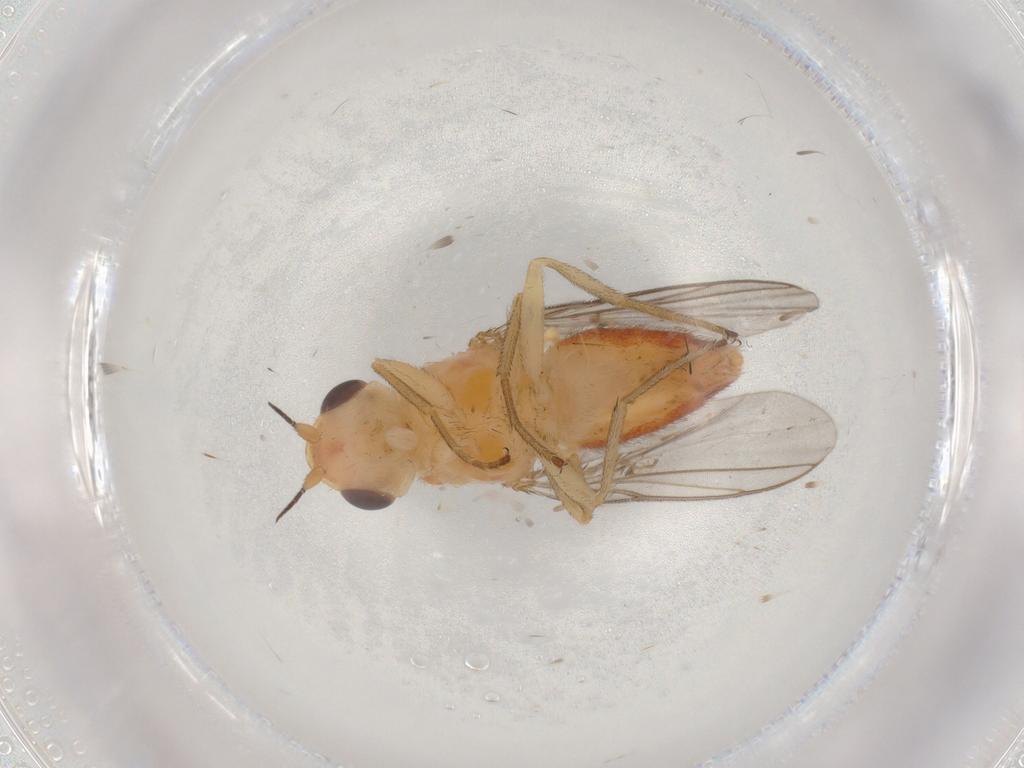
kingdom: Animalia
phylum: Arthropoda
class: Insecta
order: Diptera
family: Chloropidae
